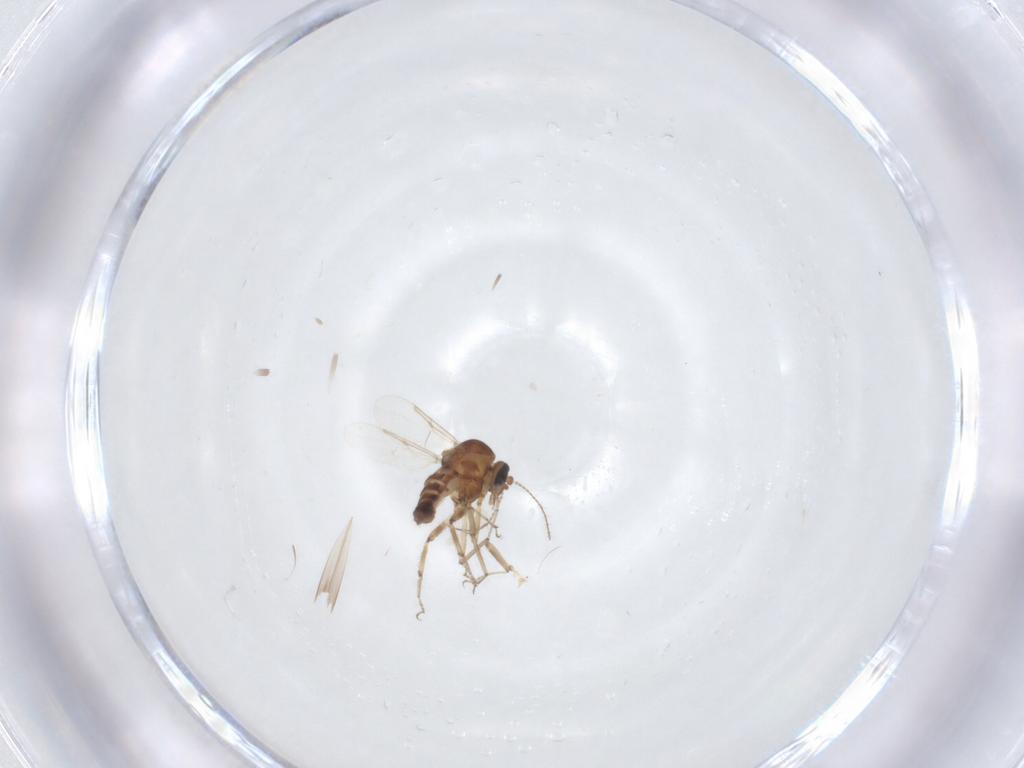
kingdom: Animalia
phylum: Arthropoda
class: Insecta
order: Diptera
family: Ceratopogonidae
